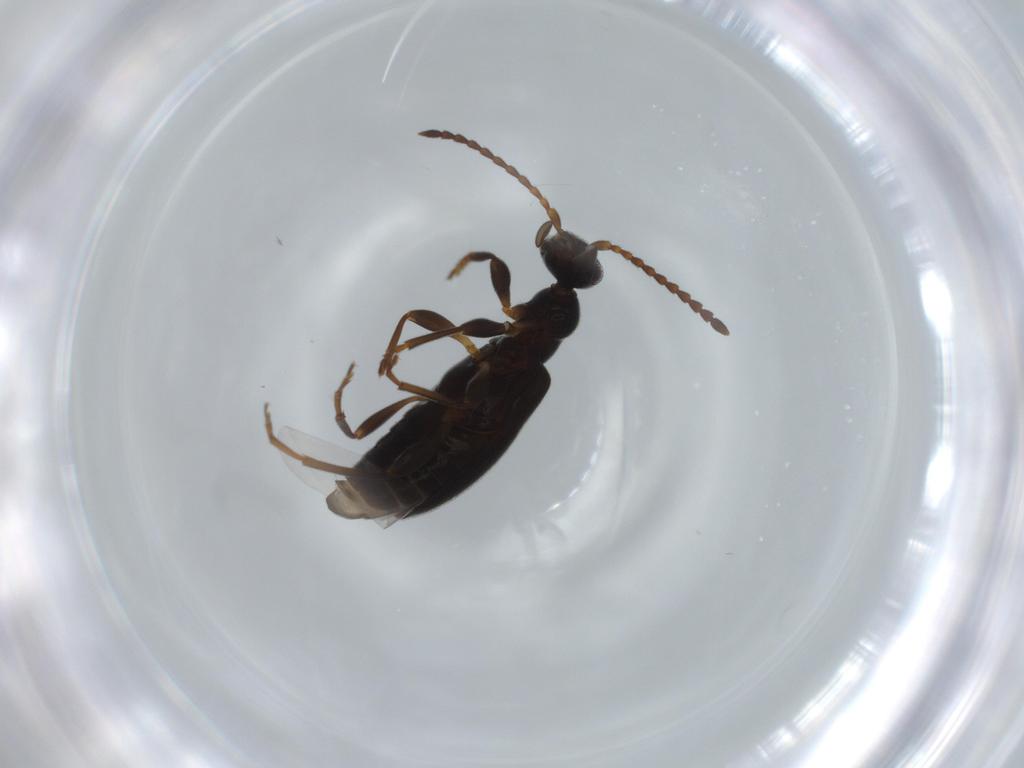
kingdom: Animalia
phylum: Arthropoda
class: Insecta
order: Coleoptera
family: Anthicidae
